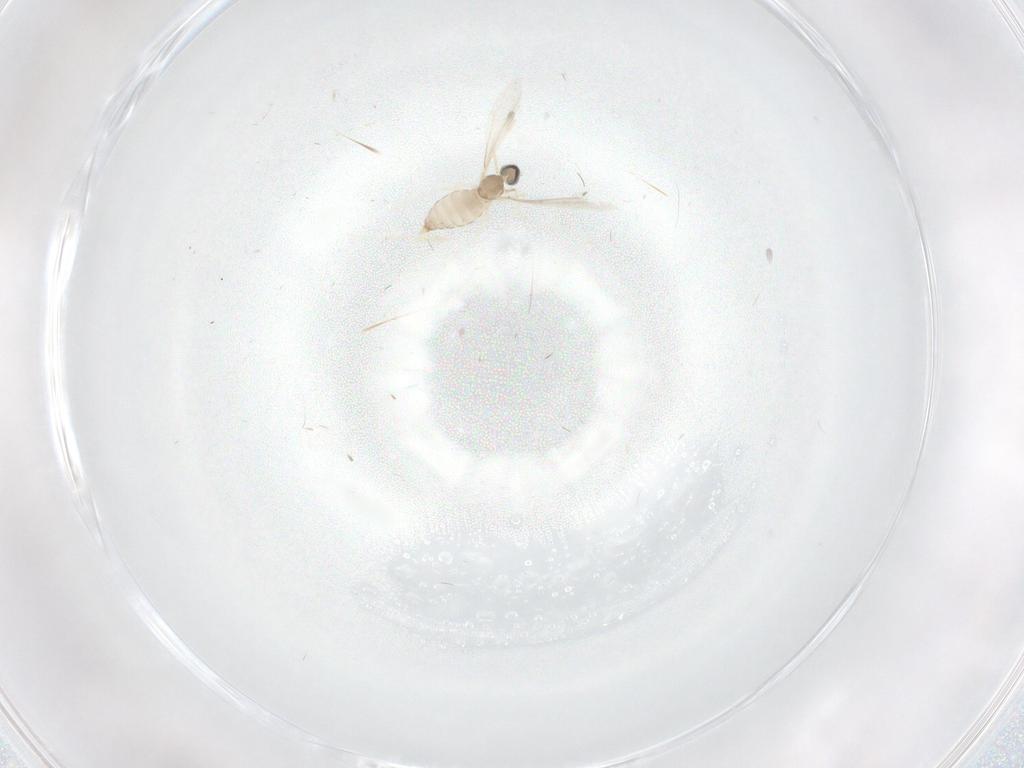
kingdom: Animalia
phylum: Arthropoda
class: Insecta
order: Diptera
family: Cecidomyiidae
